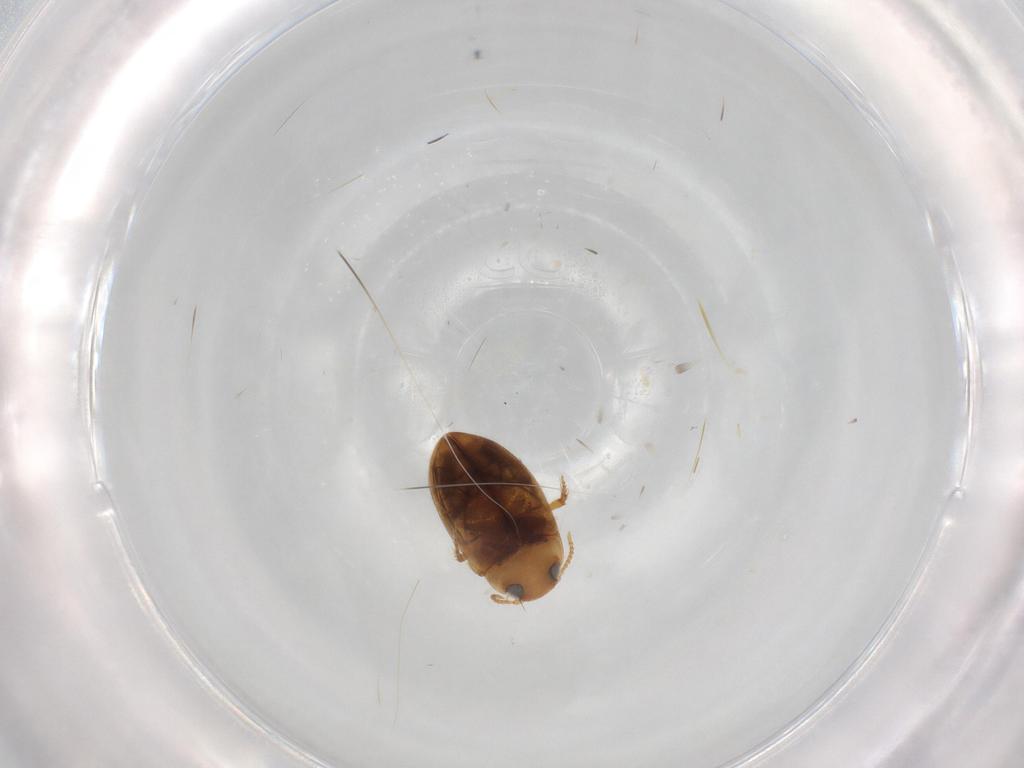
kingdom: Animalia
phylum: Arthropoda
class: Insecta
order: Coleoptera
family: Dytiscidae
